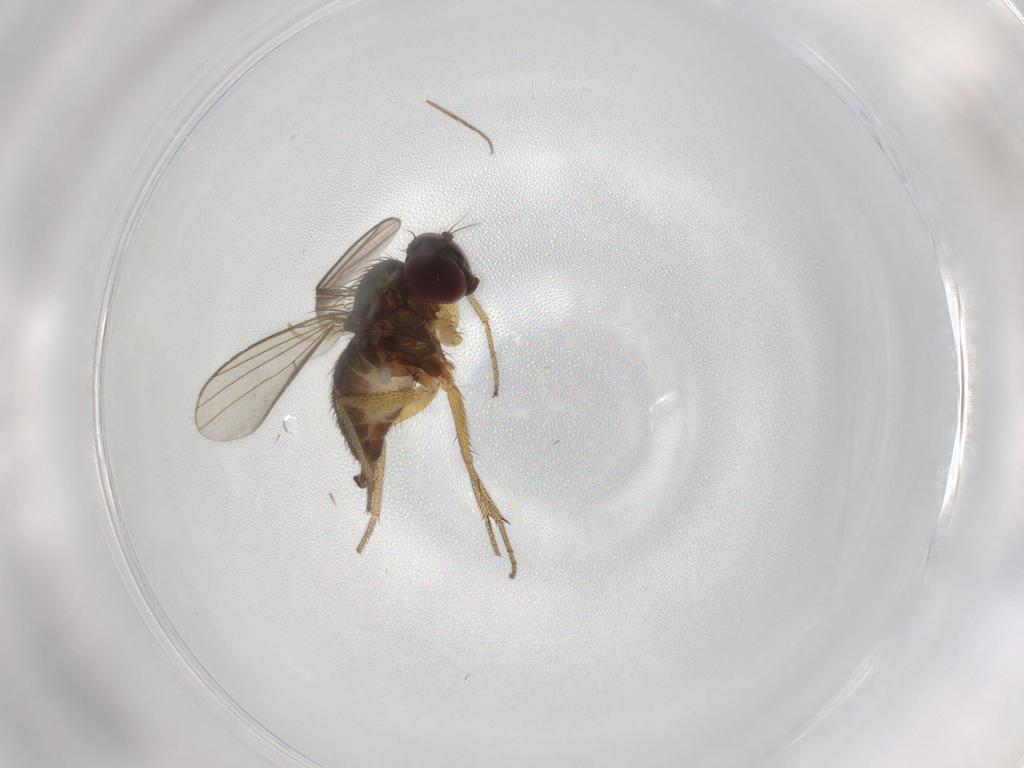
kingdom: Animalia
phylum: Arthropoda
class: Insecta
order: Diptera
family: Dolichopodidae
